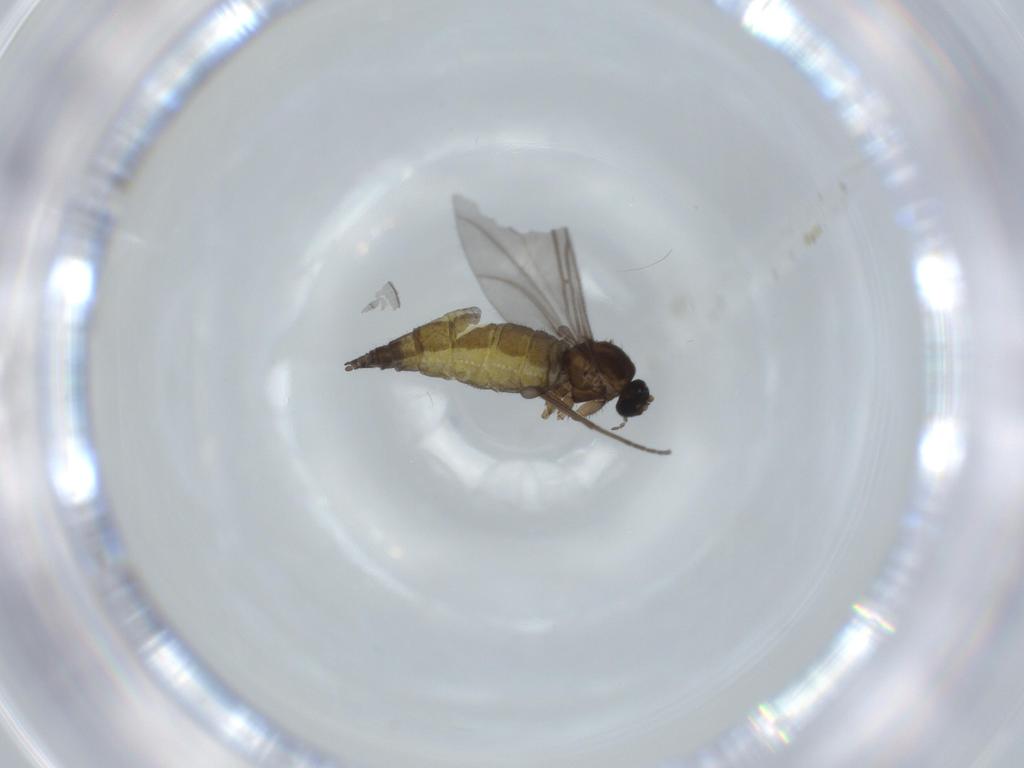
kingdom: Animalia
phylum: Arthropoda
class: Insecta
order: Diptera
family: Sciaridae
